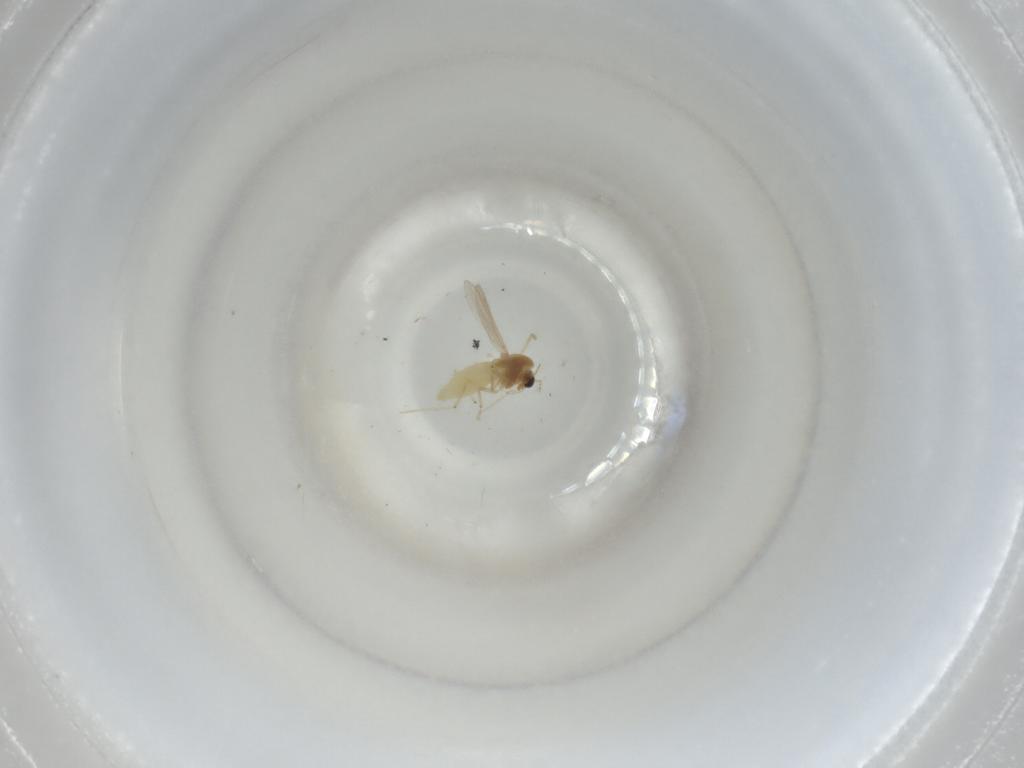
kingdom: Animalia
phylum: Arthropoda
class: Insecta
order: Diptera
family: Chironomidae
